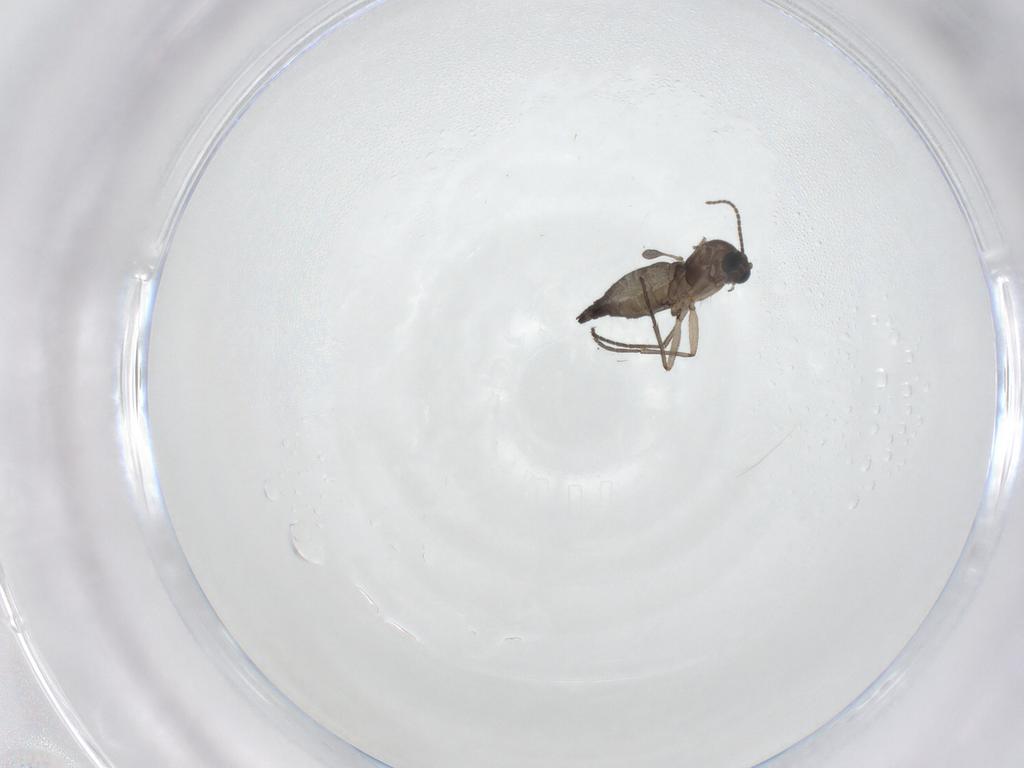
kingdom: Animalia
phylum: Arthropoda
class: Insecta
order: Diptera
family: Sciaridae
